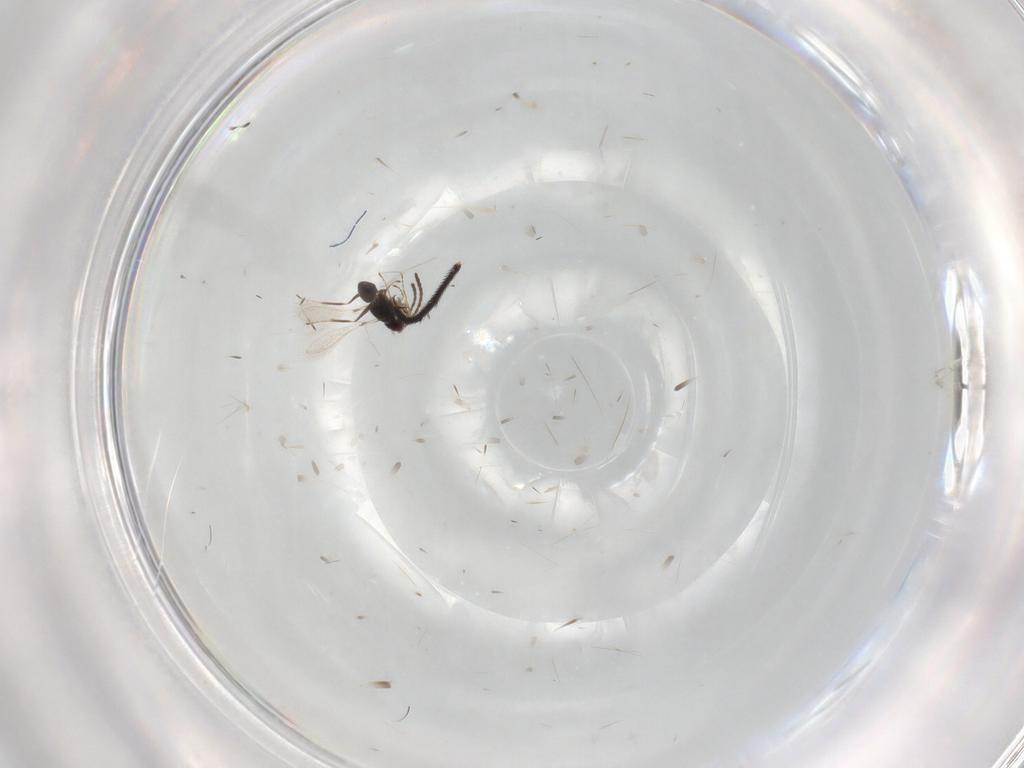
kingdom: Animalia
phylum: Arthropoda
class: Insecta
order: Hymenoptera
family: Mymaridae
